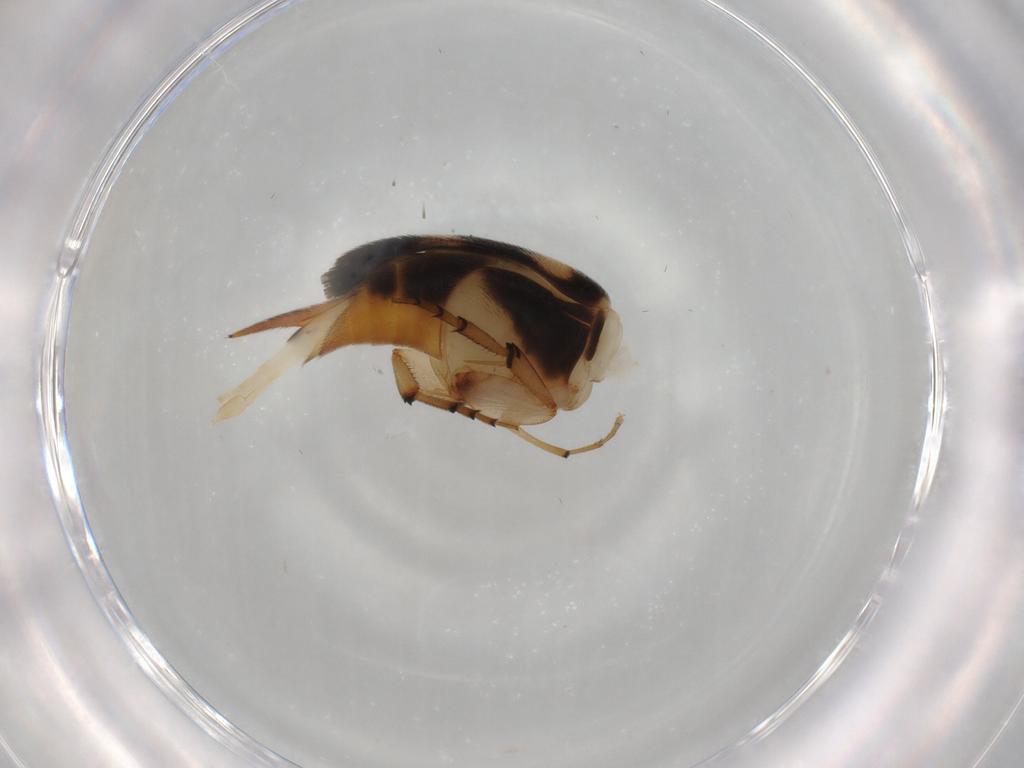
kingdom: Animalia
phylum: Arthropoda
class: Insecta
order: Coleoptera
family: Mordellidae
